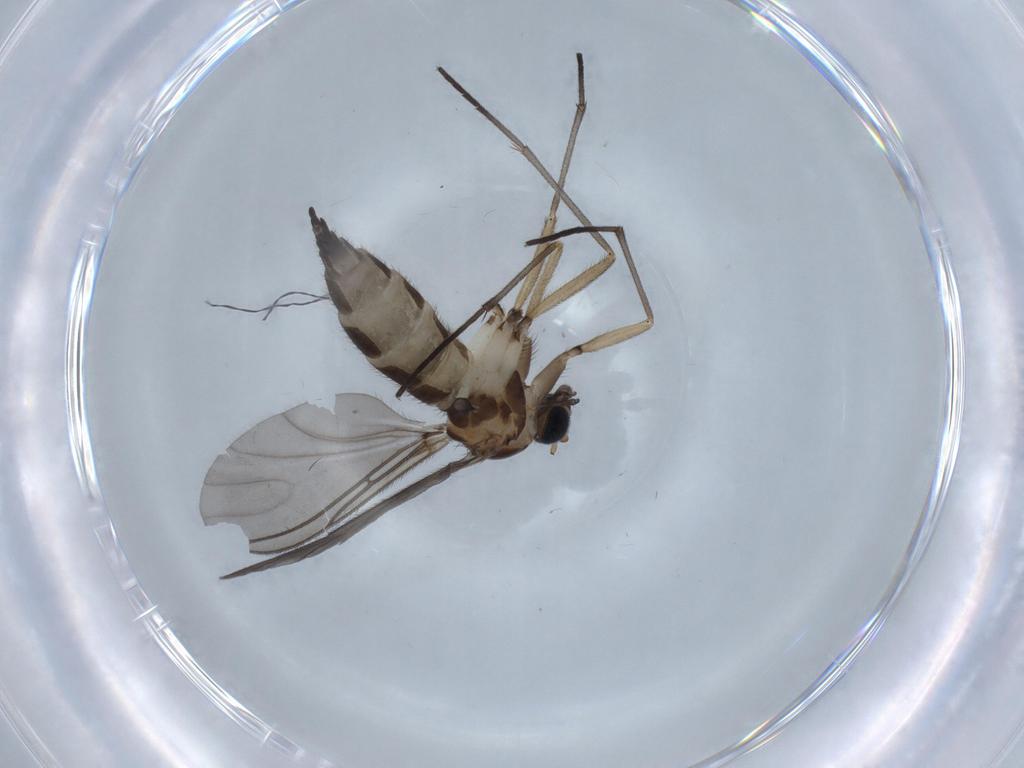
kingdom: Animalia
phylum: Arthropoda
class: Insecta
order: Diptera
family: Sciaridae
